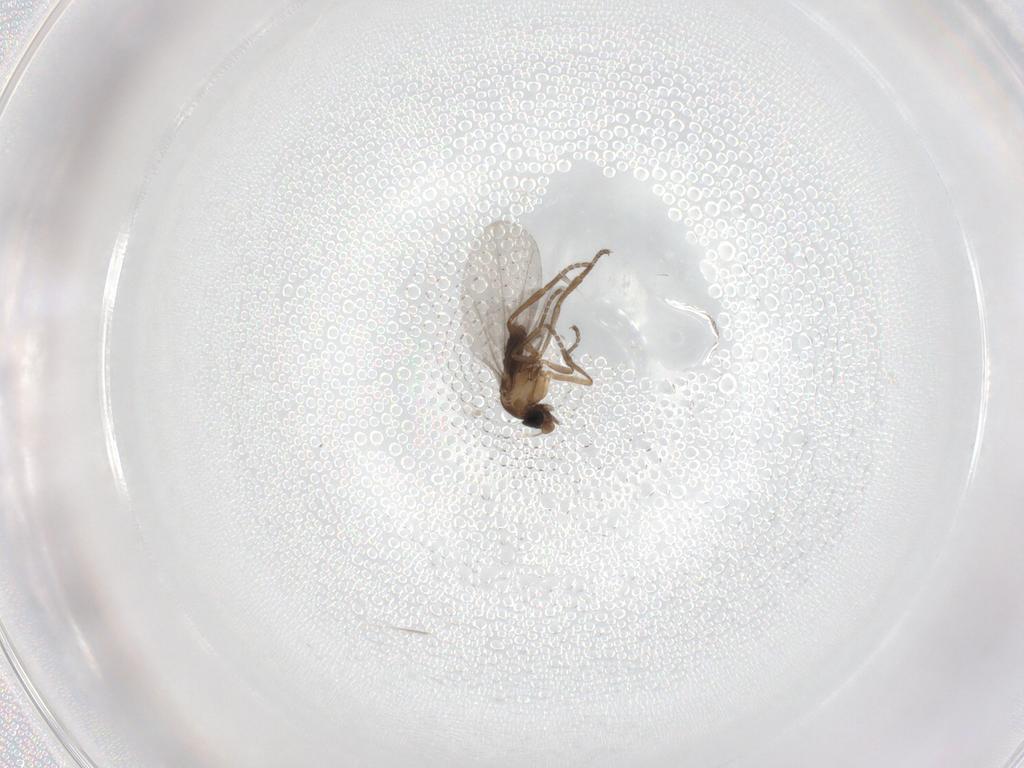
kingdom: Animalia
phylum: Arthropoda
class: Insecta
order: Diptera
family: Phoridae
